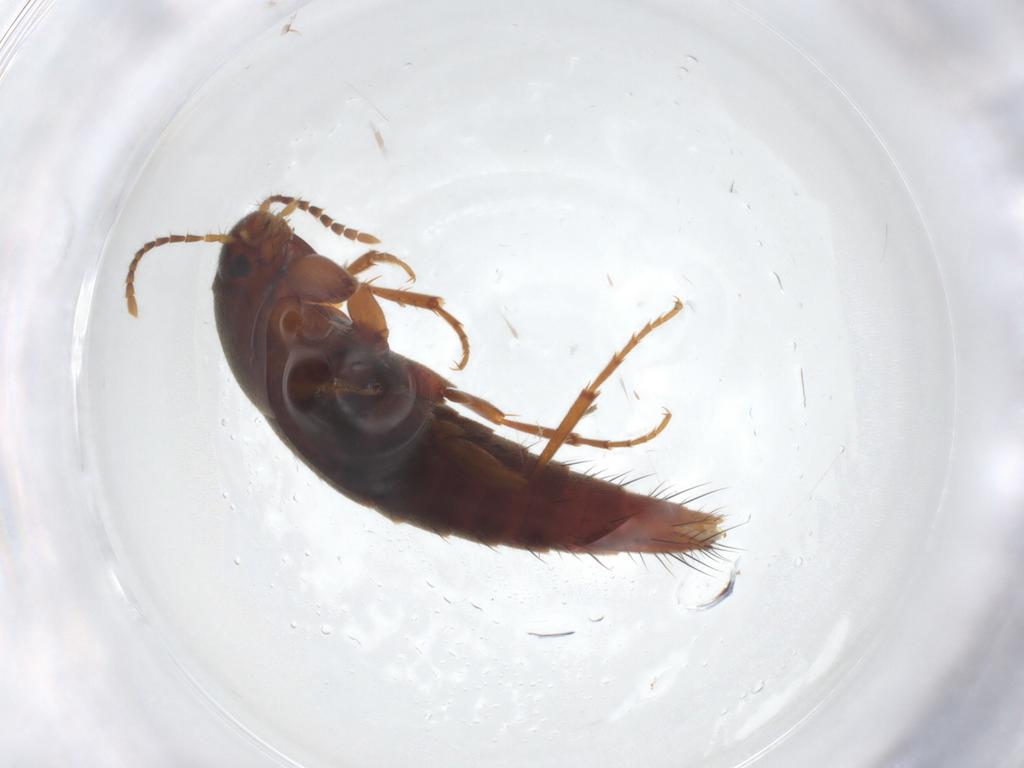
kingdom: Animalia
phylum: Arthropoda
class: Insecta
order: Coleoptera
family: Staphylinidae
